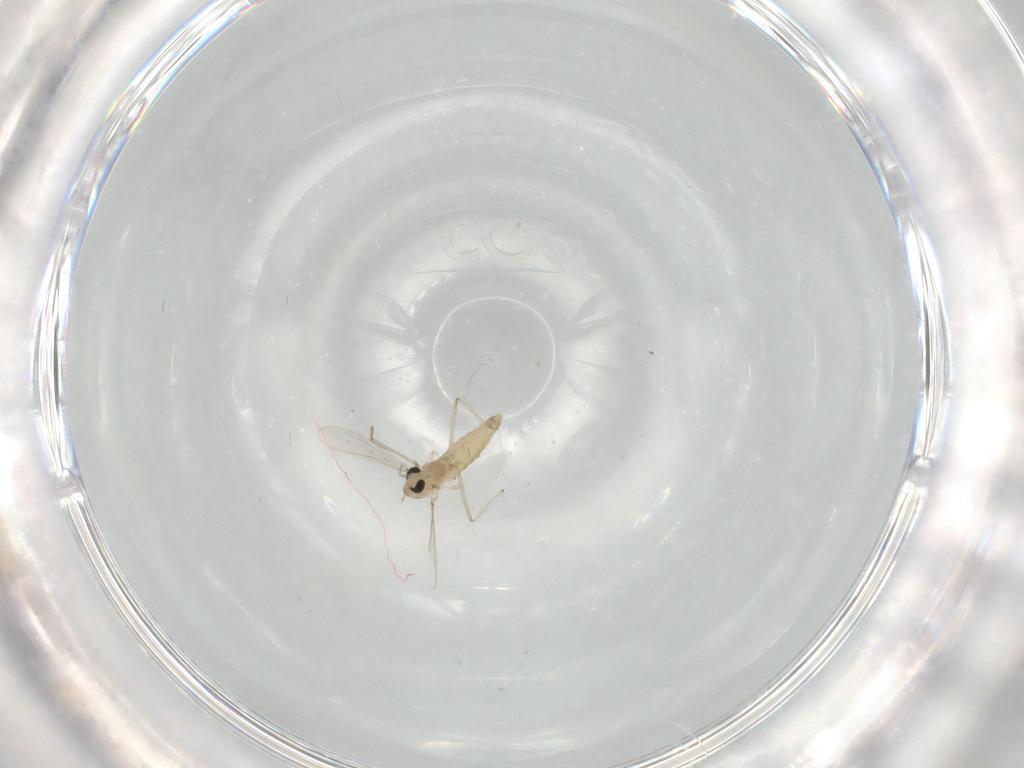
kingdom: Animalia
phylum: Arthropoda
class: Insecta
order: Diptera
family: Chironomidae
